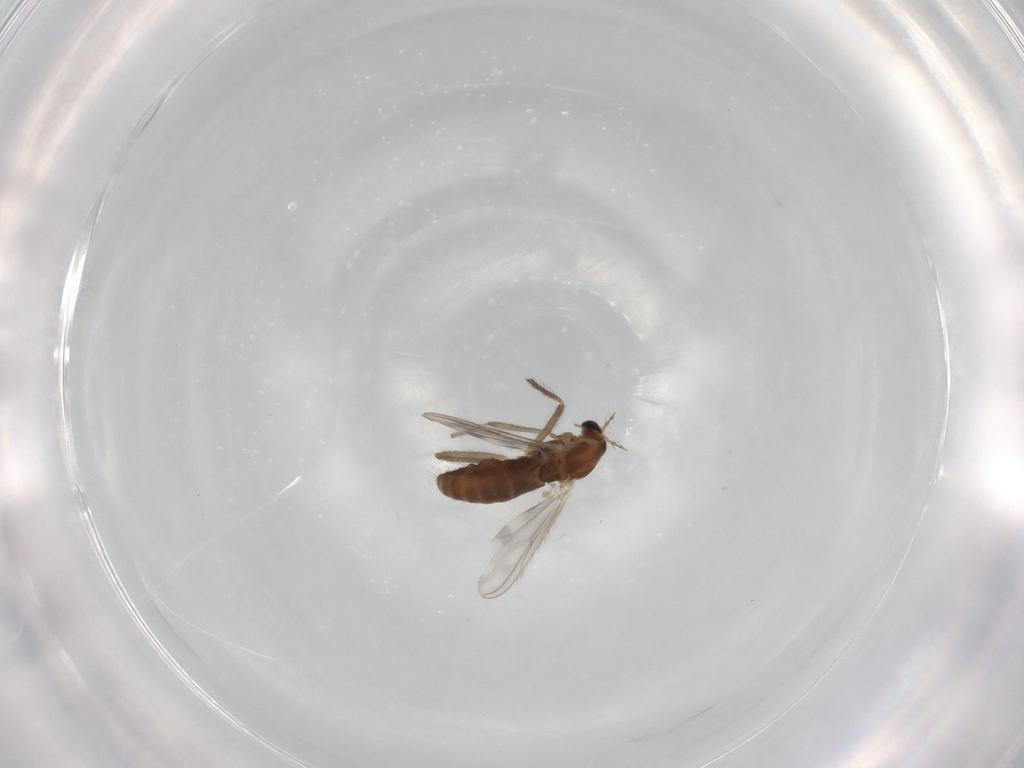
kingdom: Animalia
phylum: Arthropoda
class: Insecta
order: Diptera
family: Chironomidae
